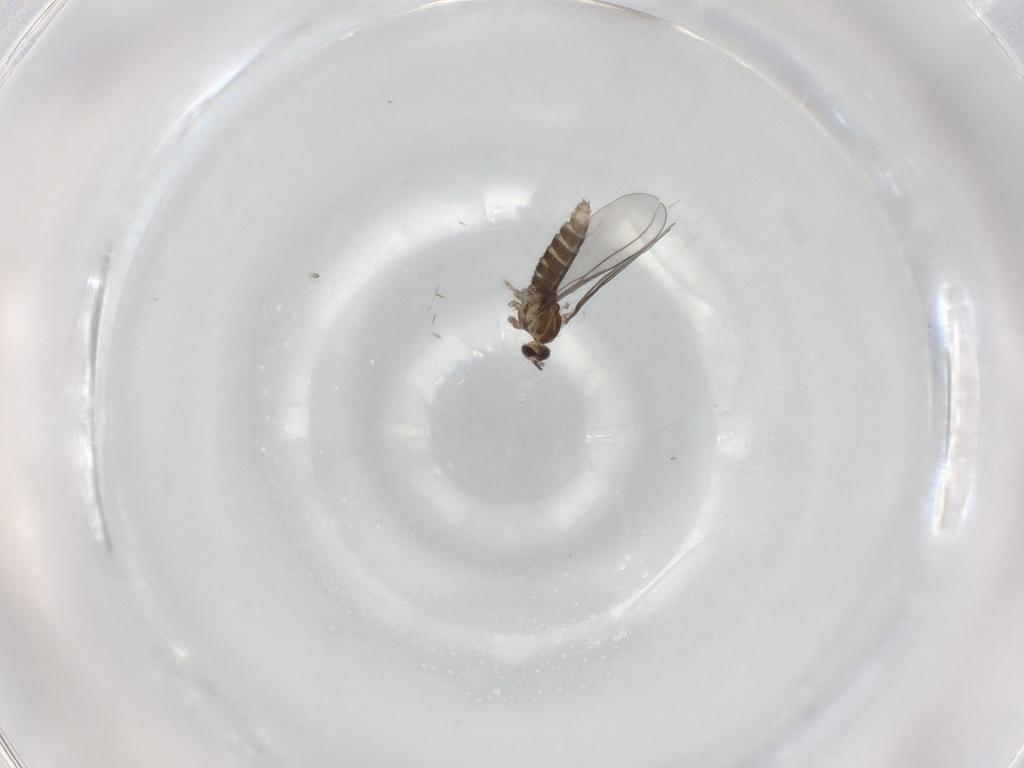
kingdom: Animalia
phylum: Arthropoda
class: Insecta
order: Diptera
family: Cecidomyiidae
